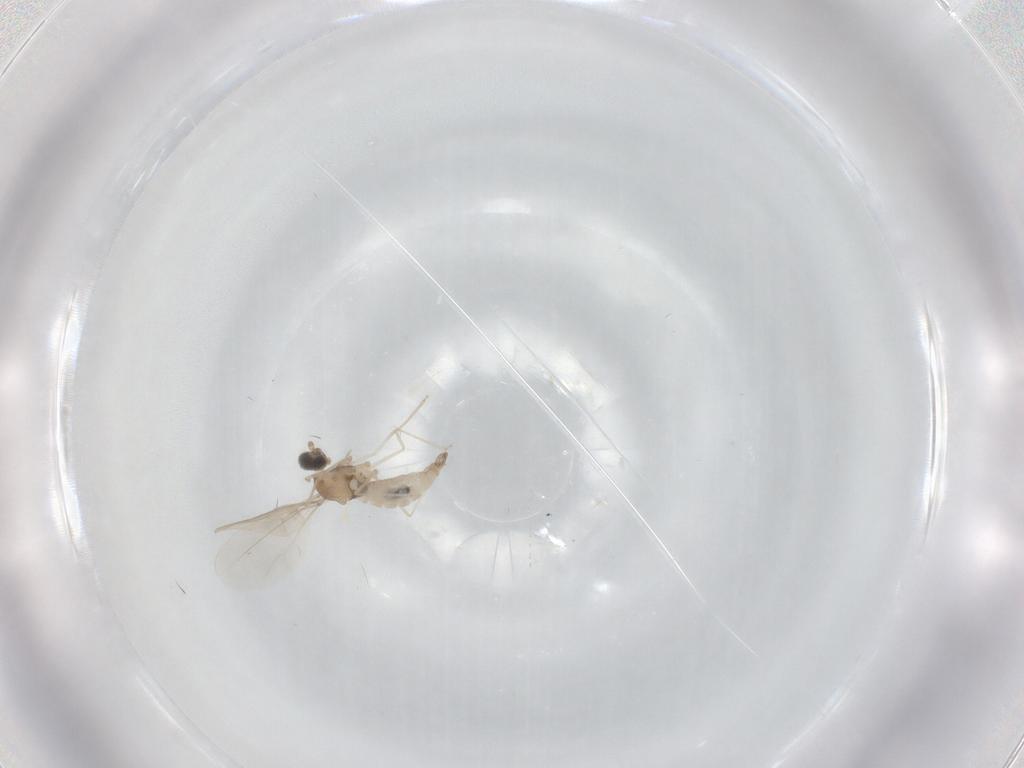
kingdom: Animalia
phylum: Arthropoda
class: Insecta
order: Diptera
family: Cecidomyiidae
